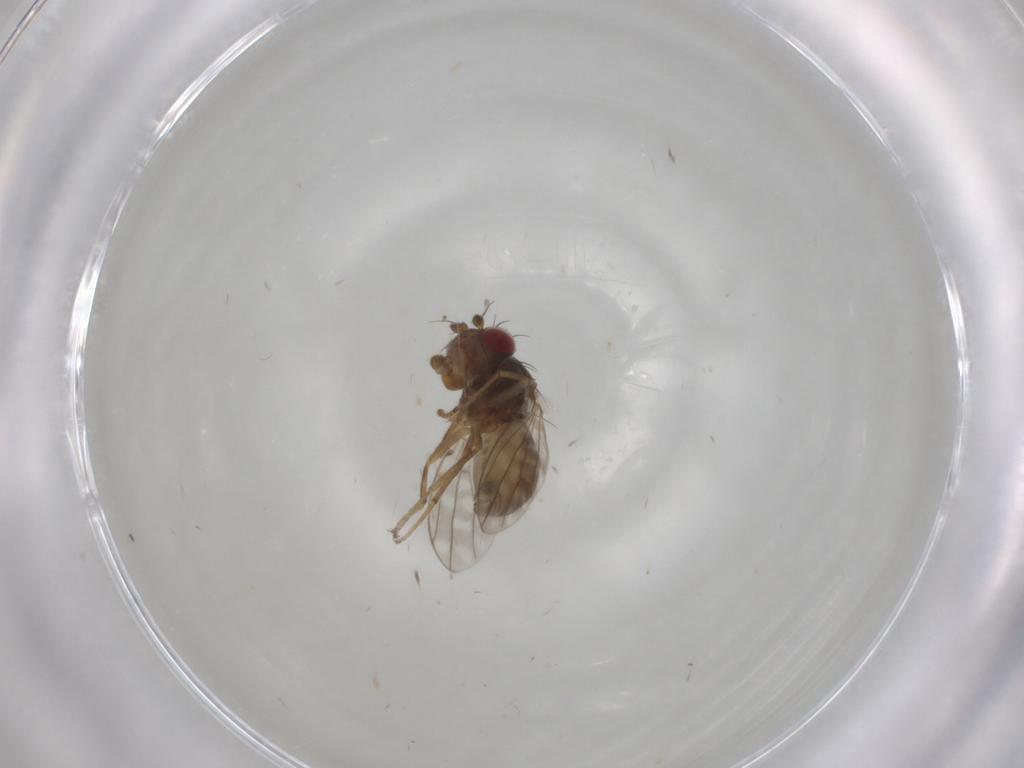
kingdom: Animalia
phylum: Arthropoda
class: Insecta
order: Diptera
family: Ephydridae
